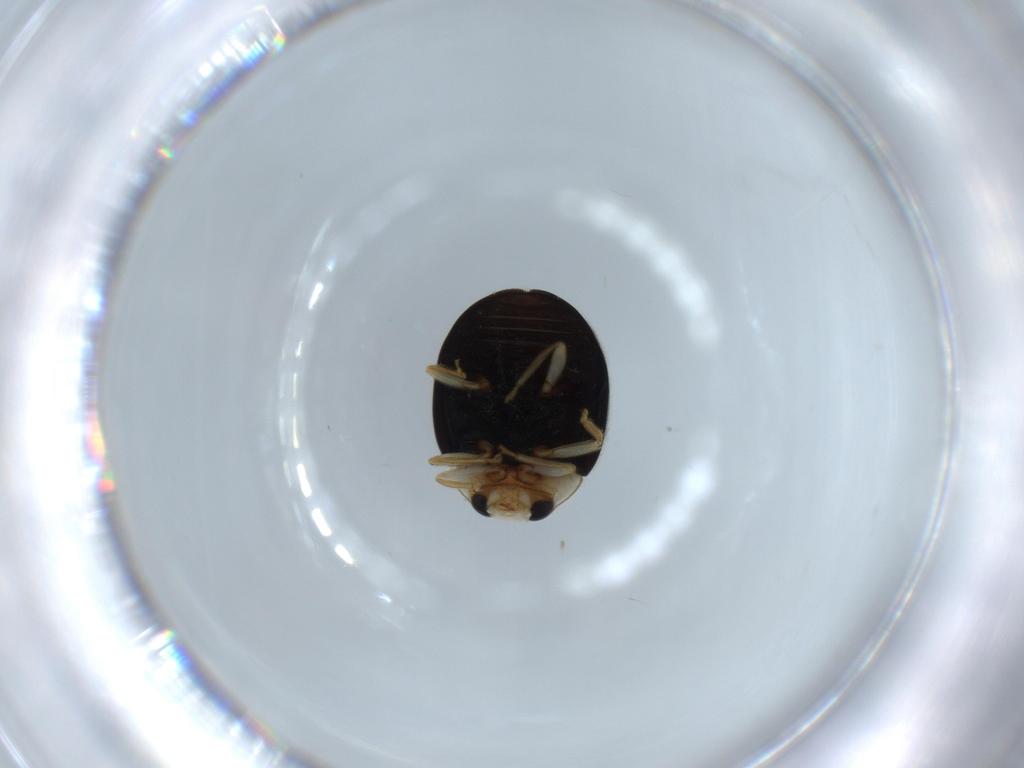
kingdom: Animalia
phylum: Arthropoda
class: Insecta
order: Coleoptera
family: Coccinellidae
